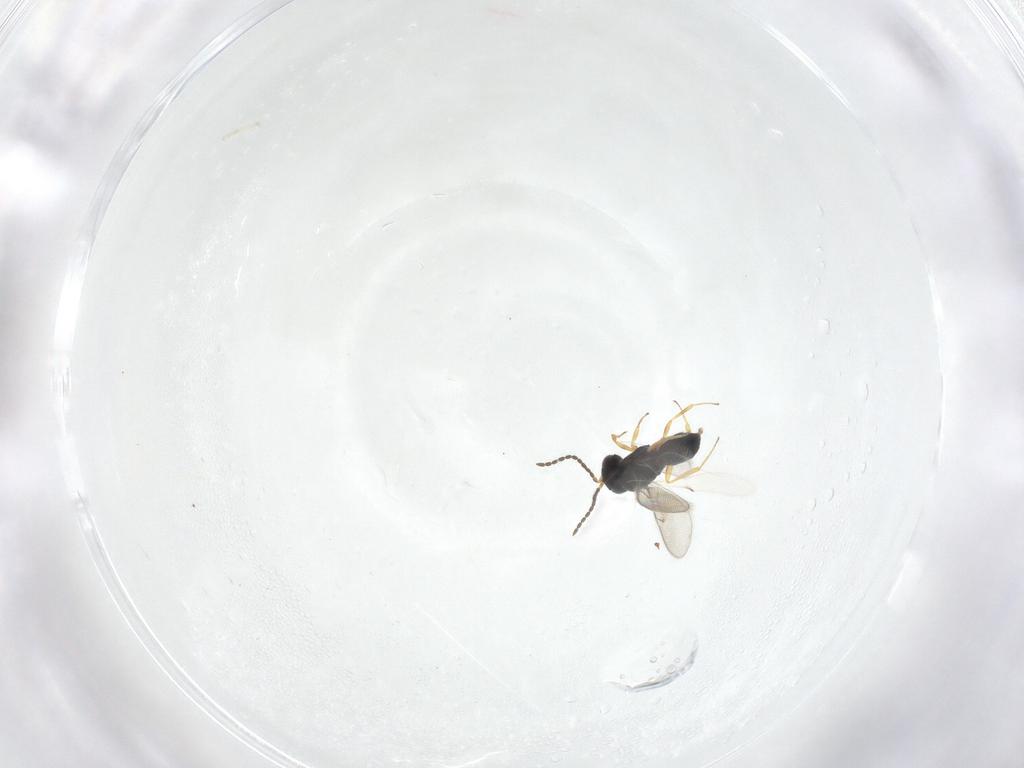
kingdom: Animalia
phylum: Arthropoda
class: Insecta
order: Hymenoptera
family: Scelionidae
